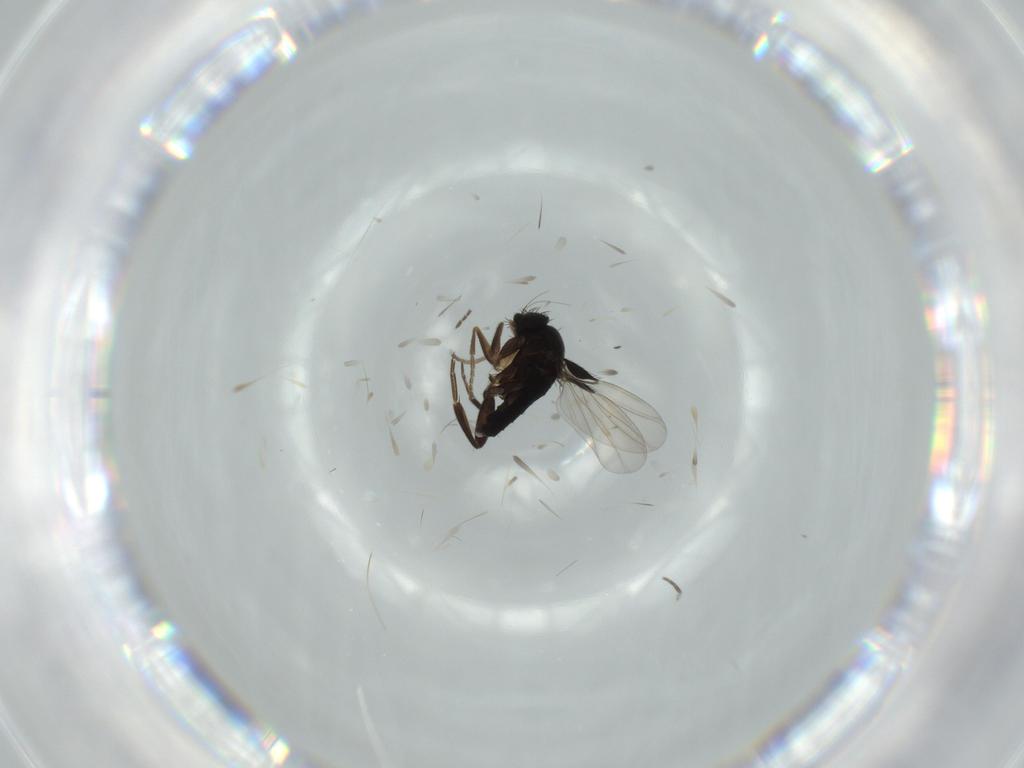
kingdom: Animalia
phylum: Arthropoda
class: Insecta
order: Diptera
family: Phoridae
